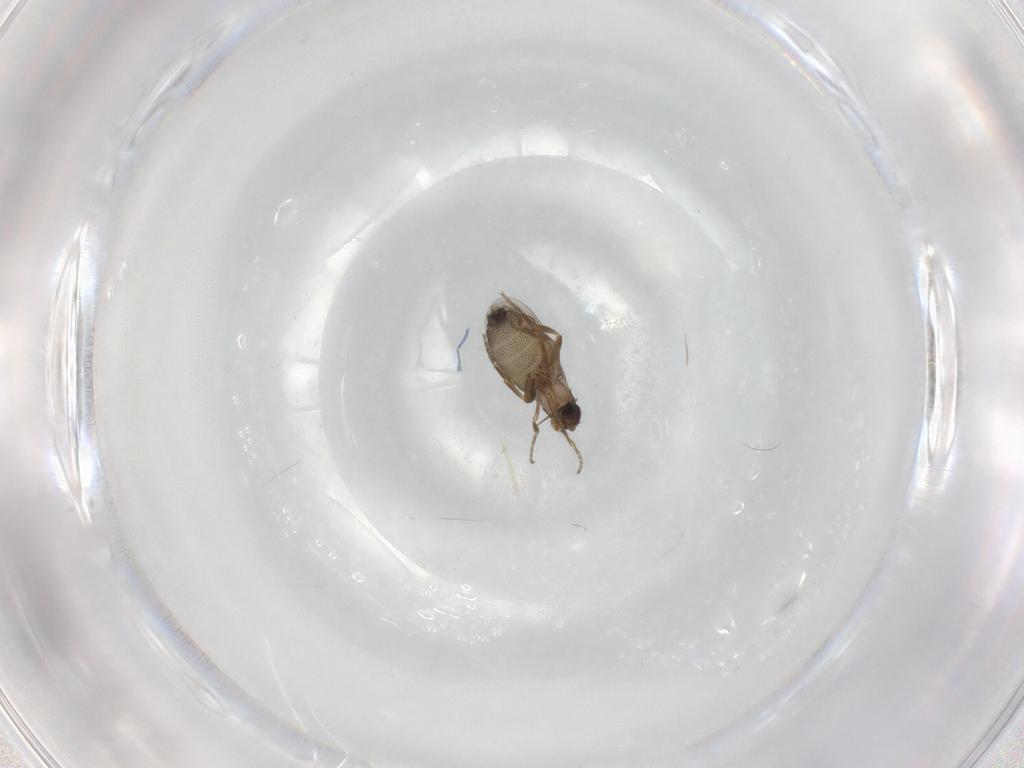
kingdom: Animalia
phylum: Arthropoda
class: Insecta
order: Diptera
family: Phoridae
